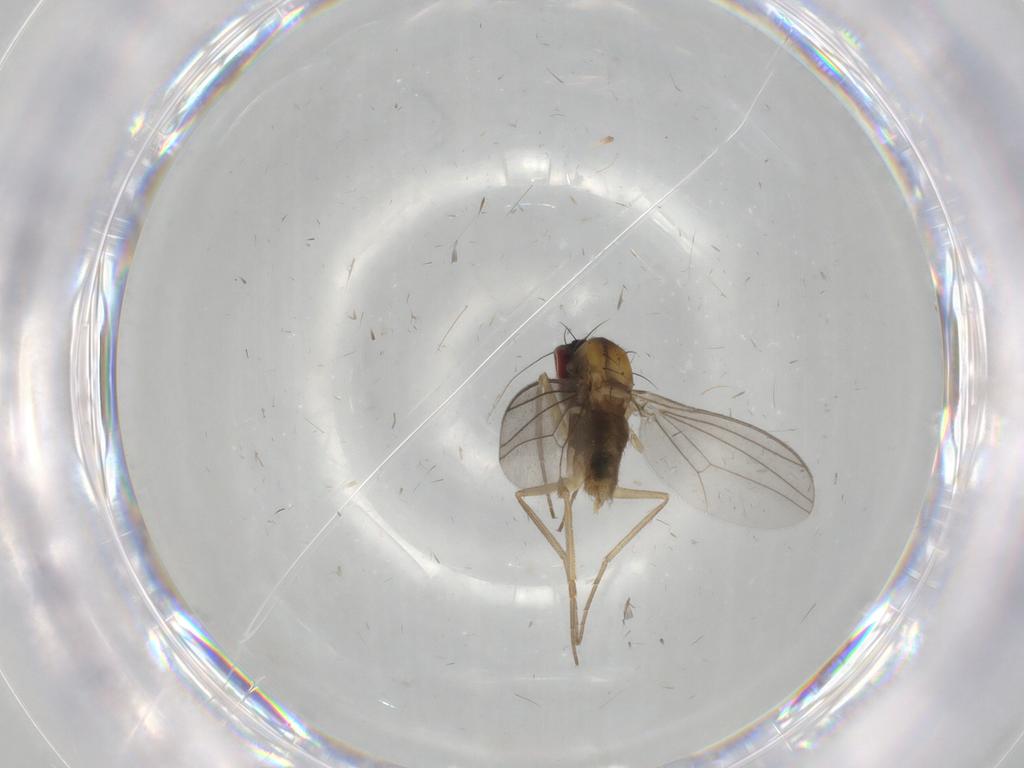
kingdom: Animalia
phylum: Arthropoda
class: Insecta
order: Diptera
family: Dolichopodidae
